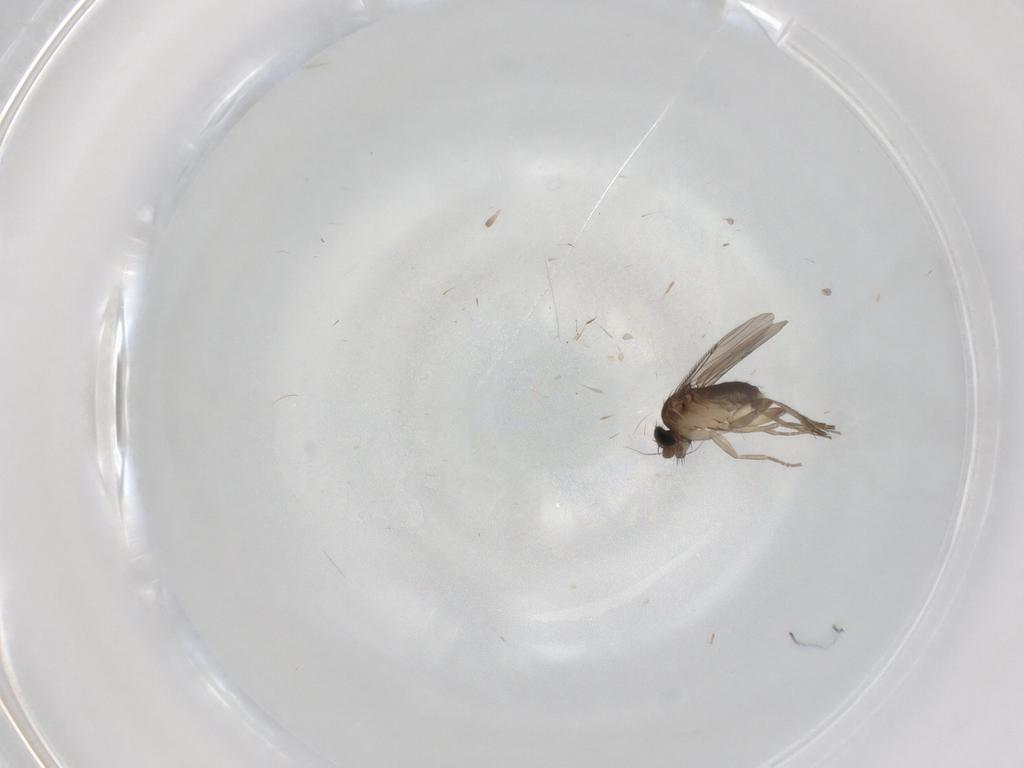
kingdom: Animalia
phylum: Arthropoda
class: Insecta
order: Diptera
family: Phoridae
